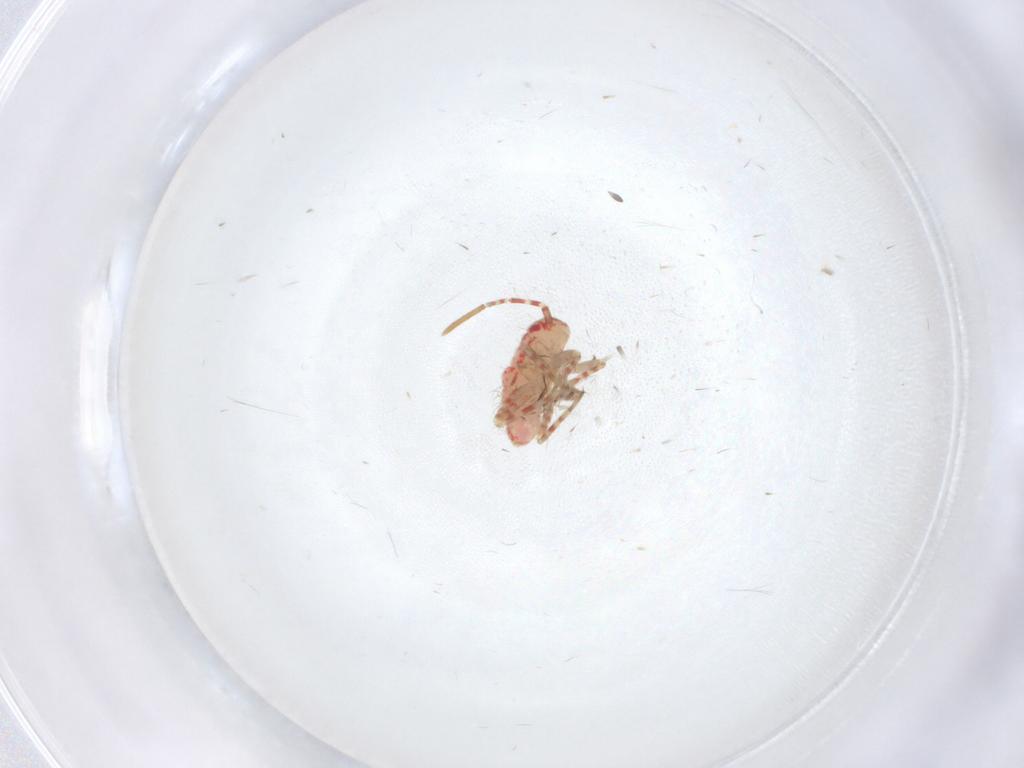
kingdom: Animalia
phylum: Arthropoda
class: Insecta
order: Hemiptera
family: Miridae
